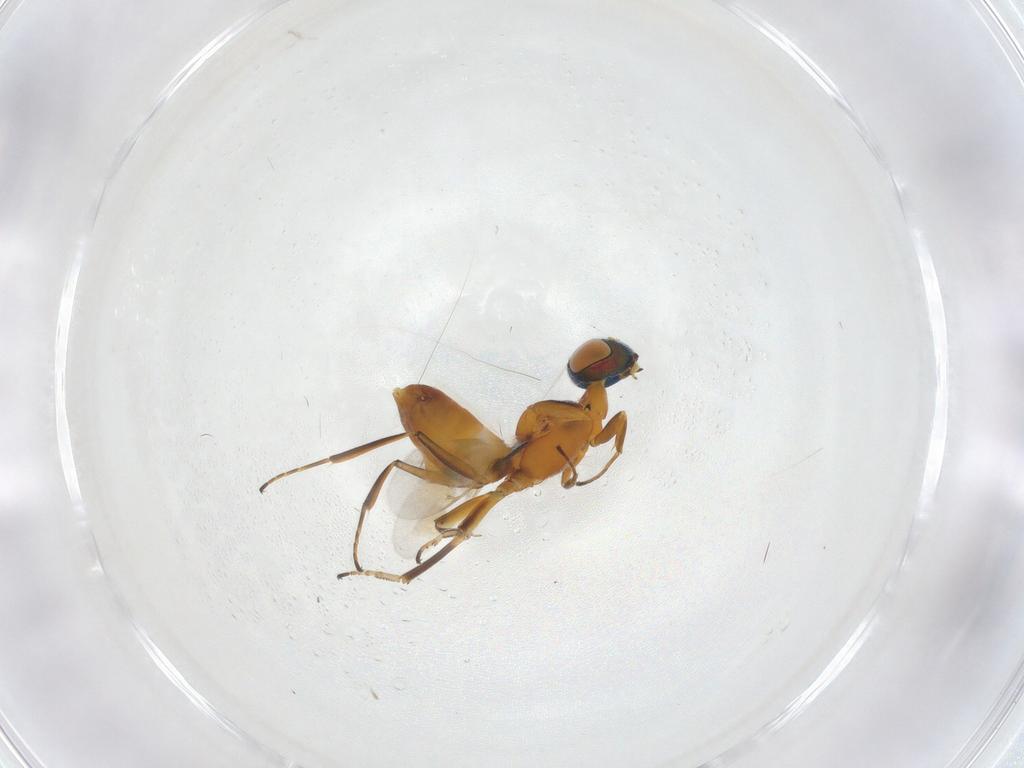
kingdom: Animalia
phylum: Arthropoda
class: Insecta
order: Hymenoptera
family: Eupelmidae
